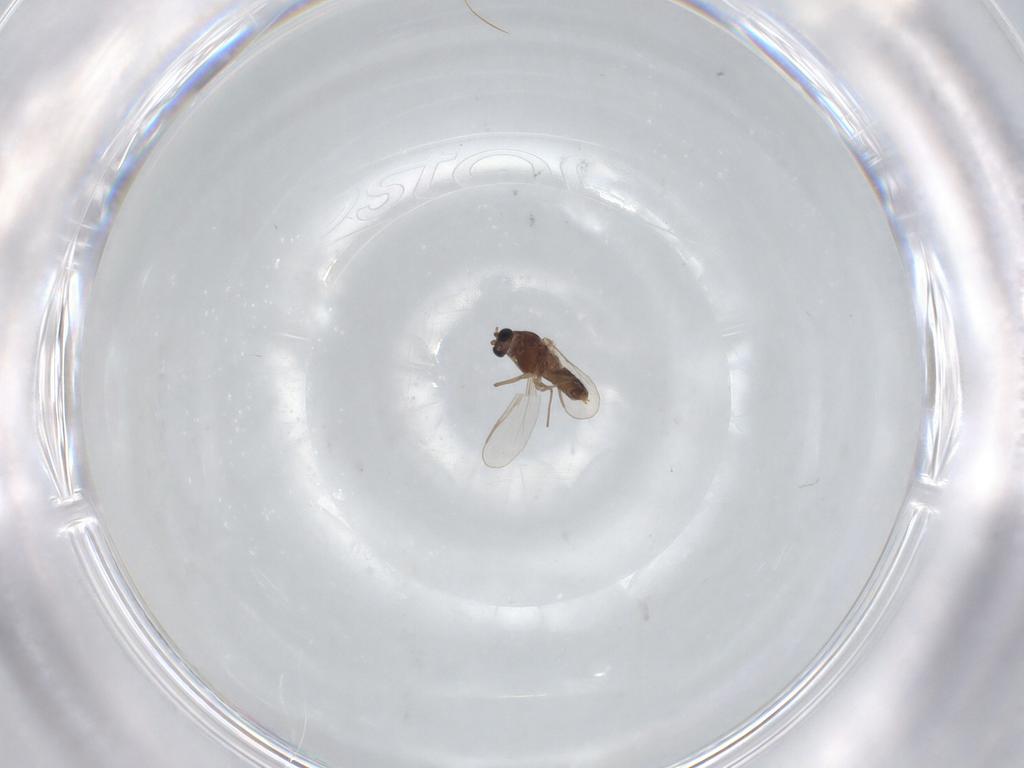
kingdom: Animalia
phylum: Arthropoda
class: Insecta
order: Diptera
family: Chironomidae
